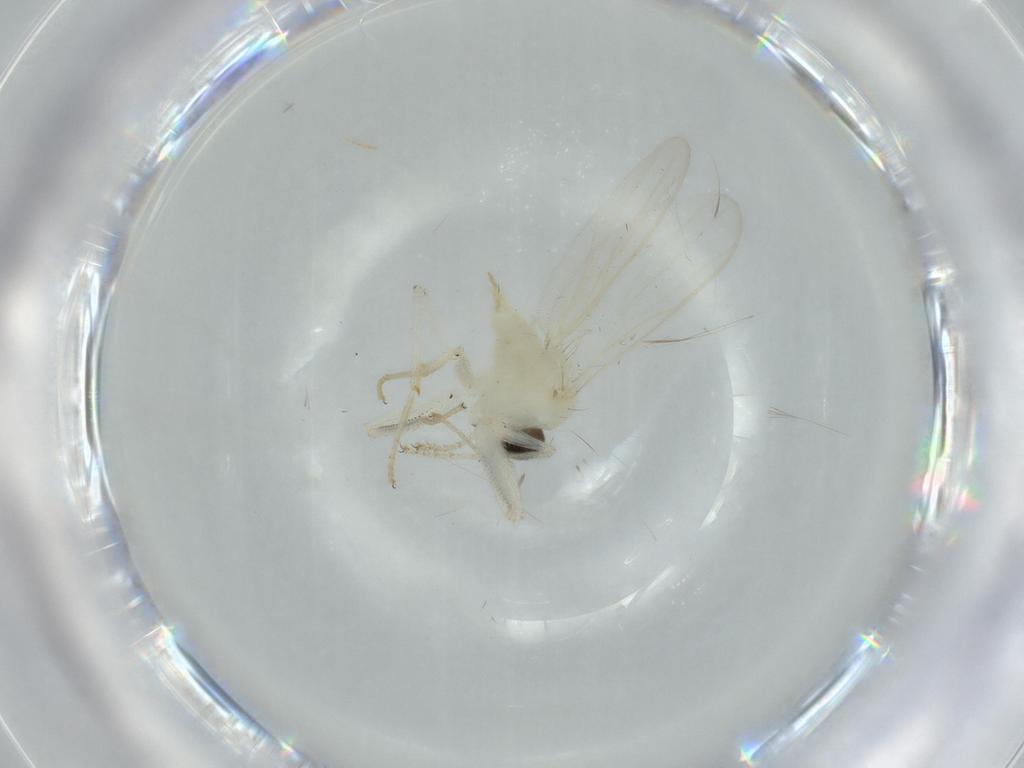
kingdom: Animalia
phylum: Arthropoda
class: Insecta
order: Diptera
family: Hybotidae
